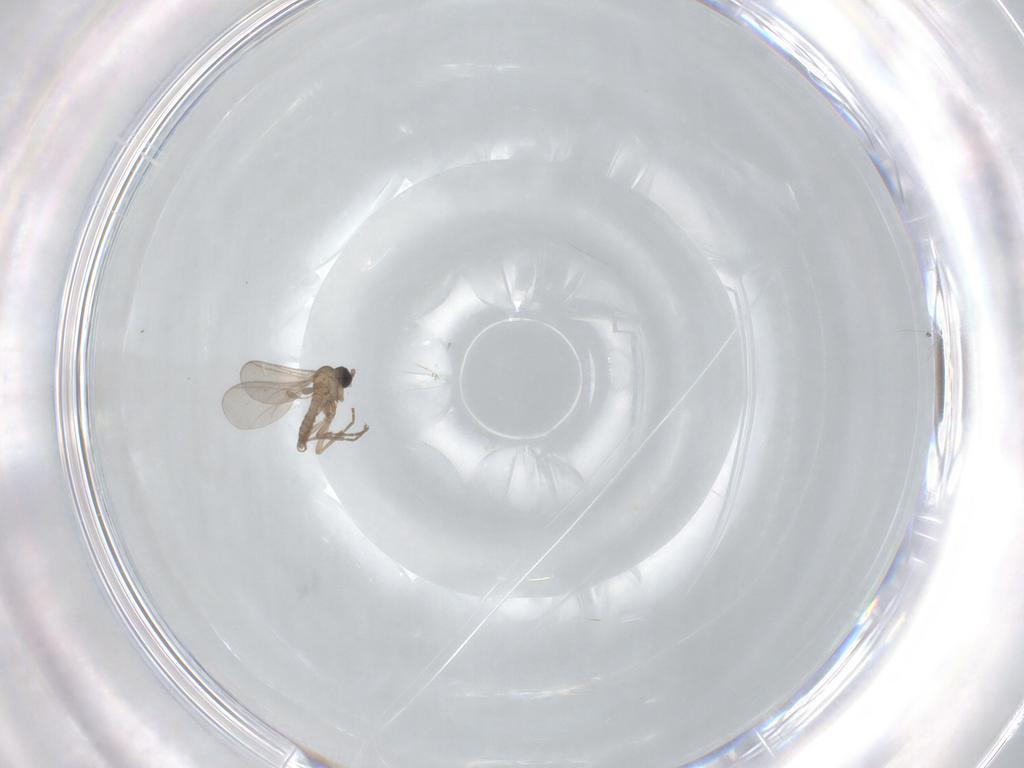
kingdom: Animalia
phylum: Arthropoda
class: Insecta
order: Diptera
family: Sciaridae
